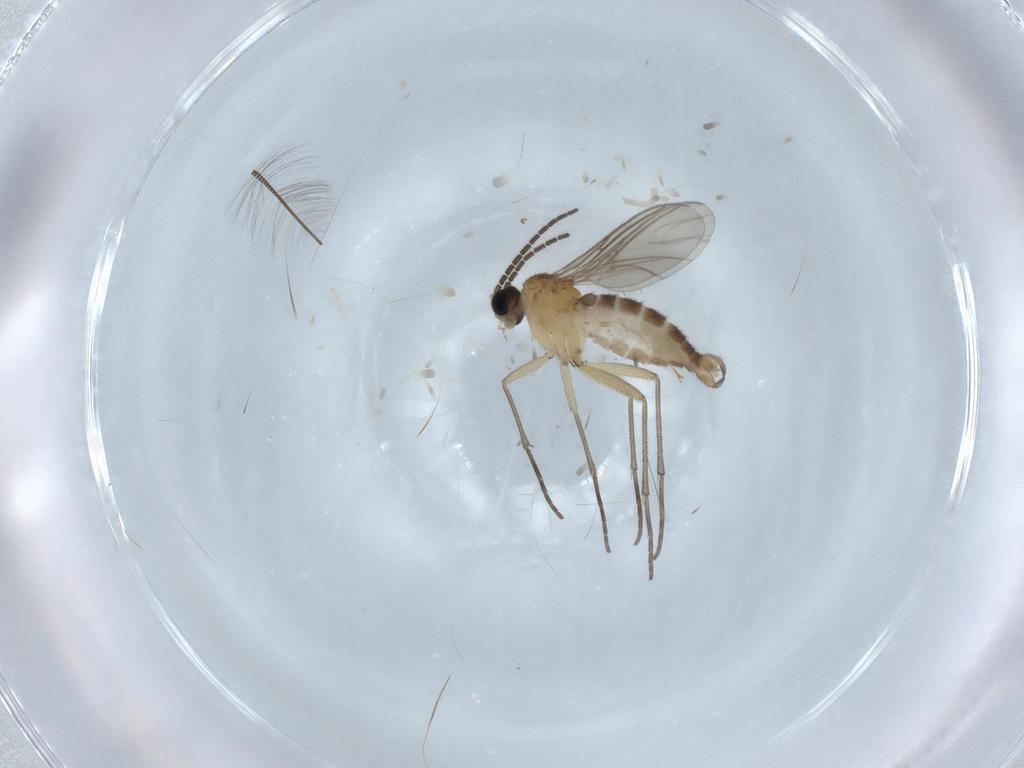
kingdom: Animalia
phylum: Arthropoda
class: Insecta
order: Diptera
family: Sciaridae
